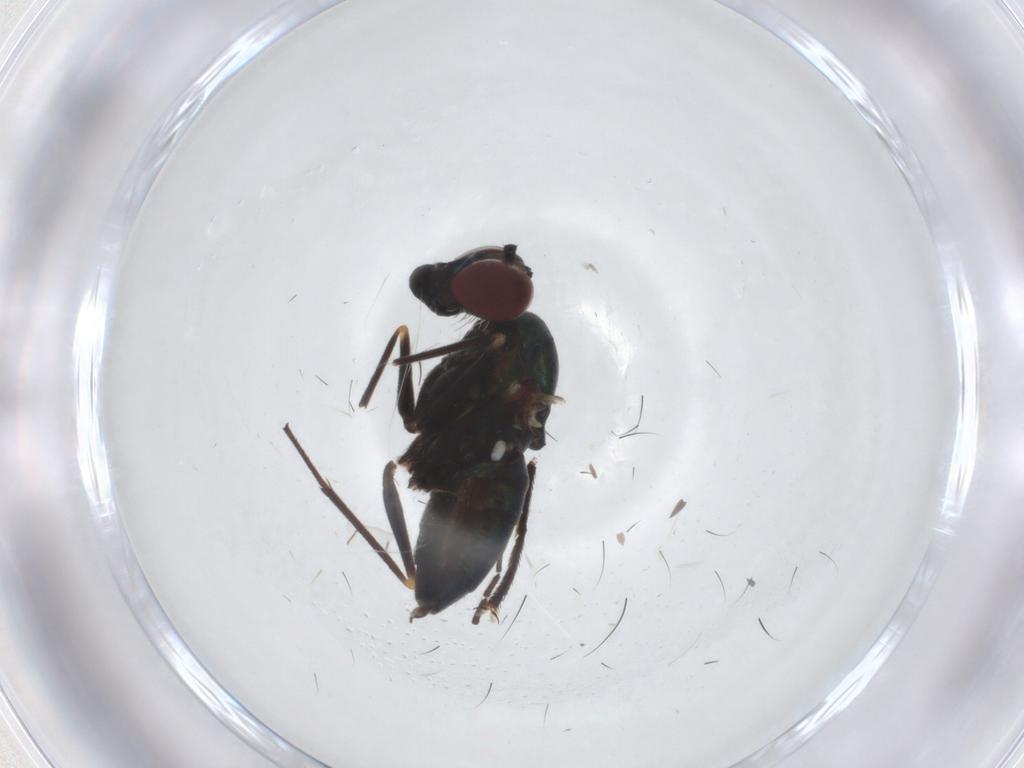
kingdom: Animalia
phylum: Arthropoda
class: Insecta
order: Diptera
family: Dolichopodidae
